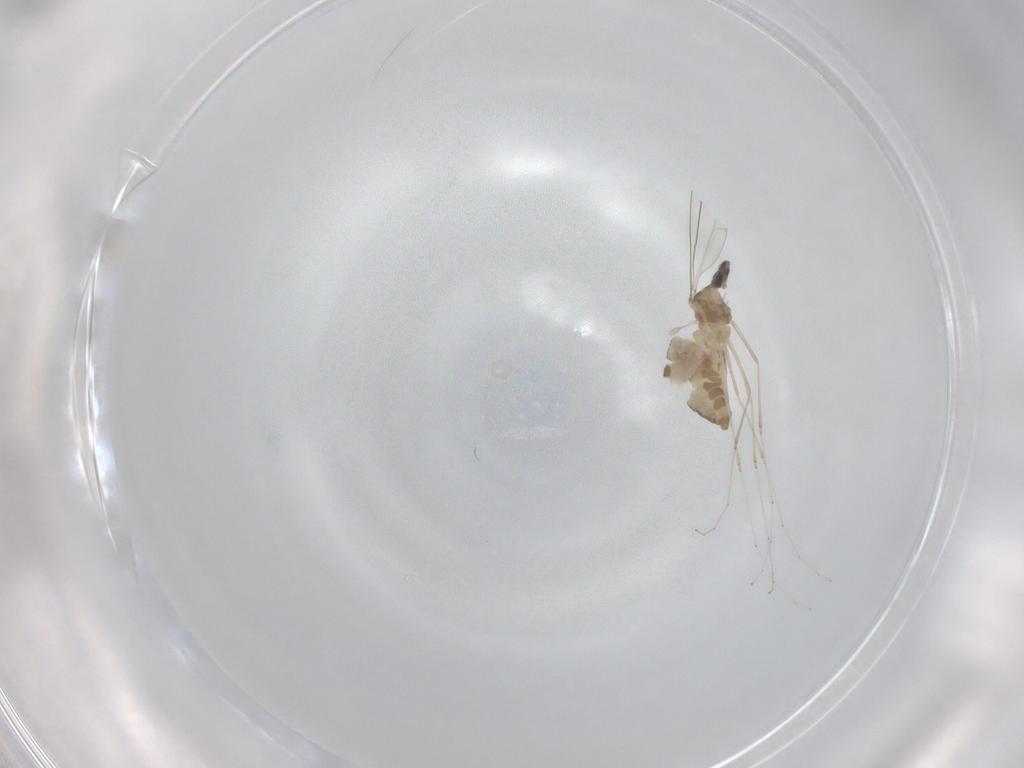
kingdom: Animalia
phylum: Arthropoda
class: Insecta
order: Diptera
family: Cecidomyiidae
